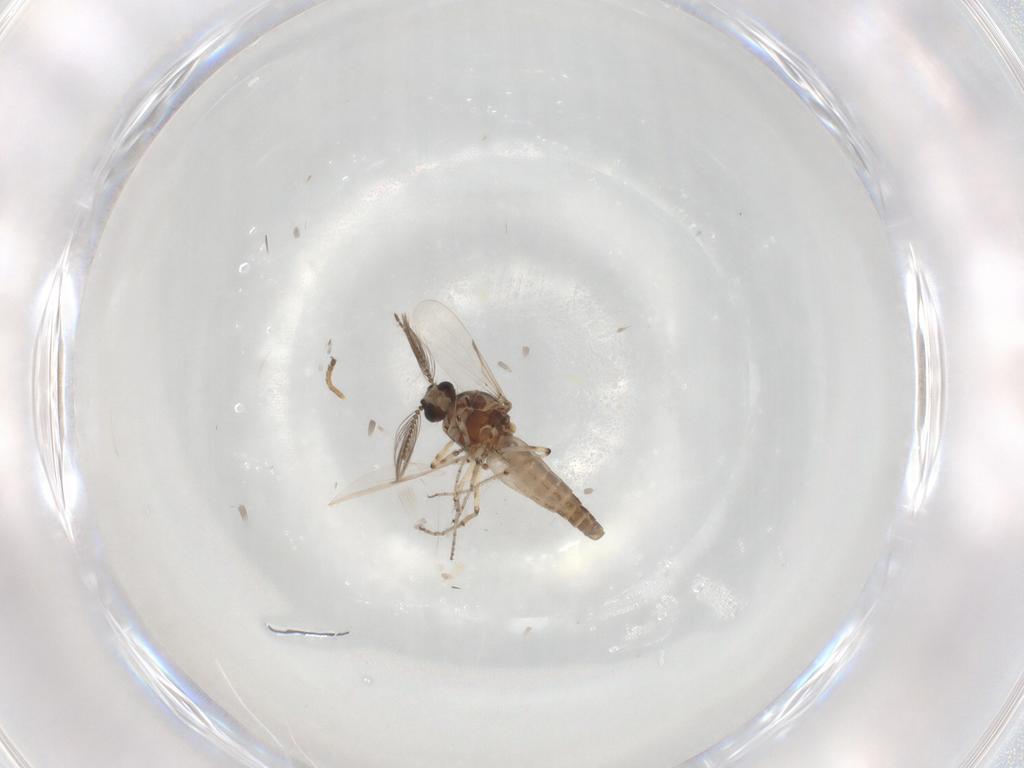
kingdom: Animalia
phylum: Arthropoda
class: Insecta
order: Diptera
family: Ceratopogonidae
